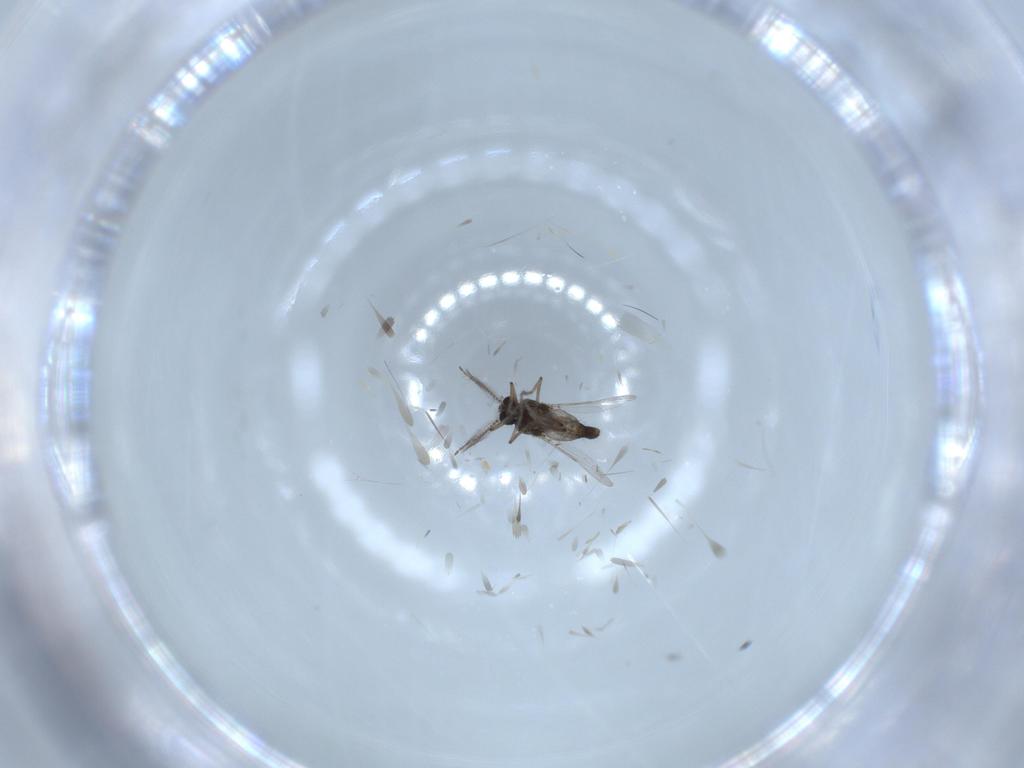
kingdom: Animalia
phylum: Arthropoda
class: Insecta
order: Diptera
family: Ceratopogonidae
